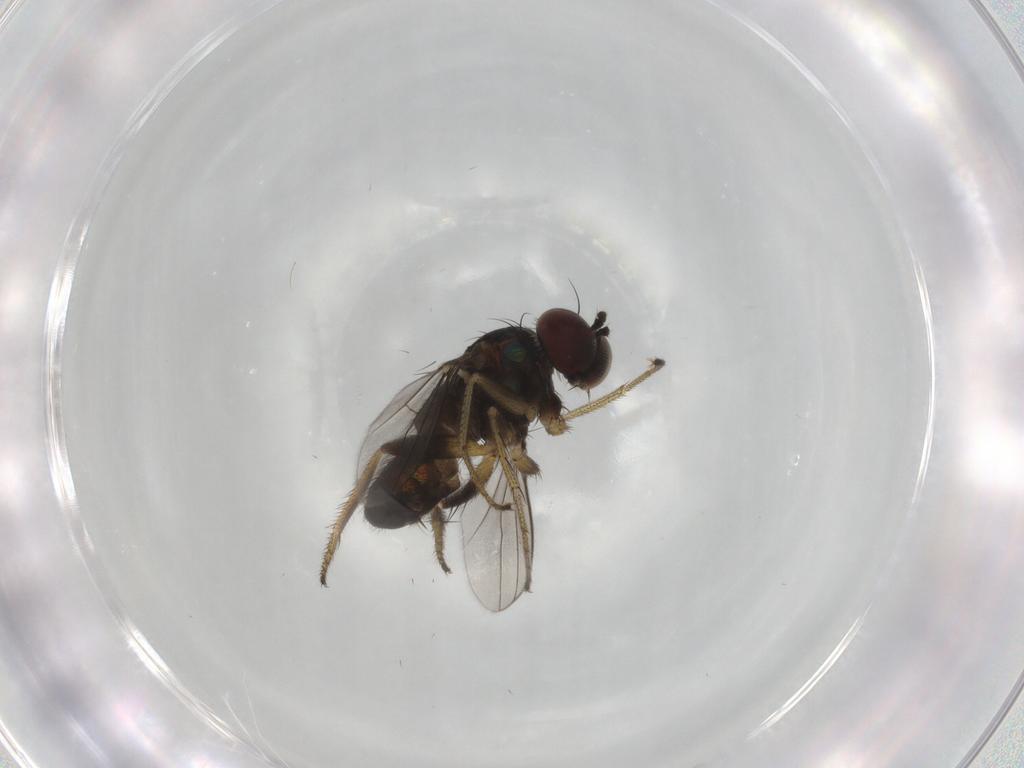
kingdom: Animalia
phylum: Arthropoda
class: Insecta
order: Diptera
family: Dolichopodidae
